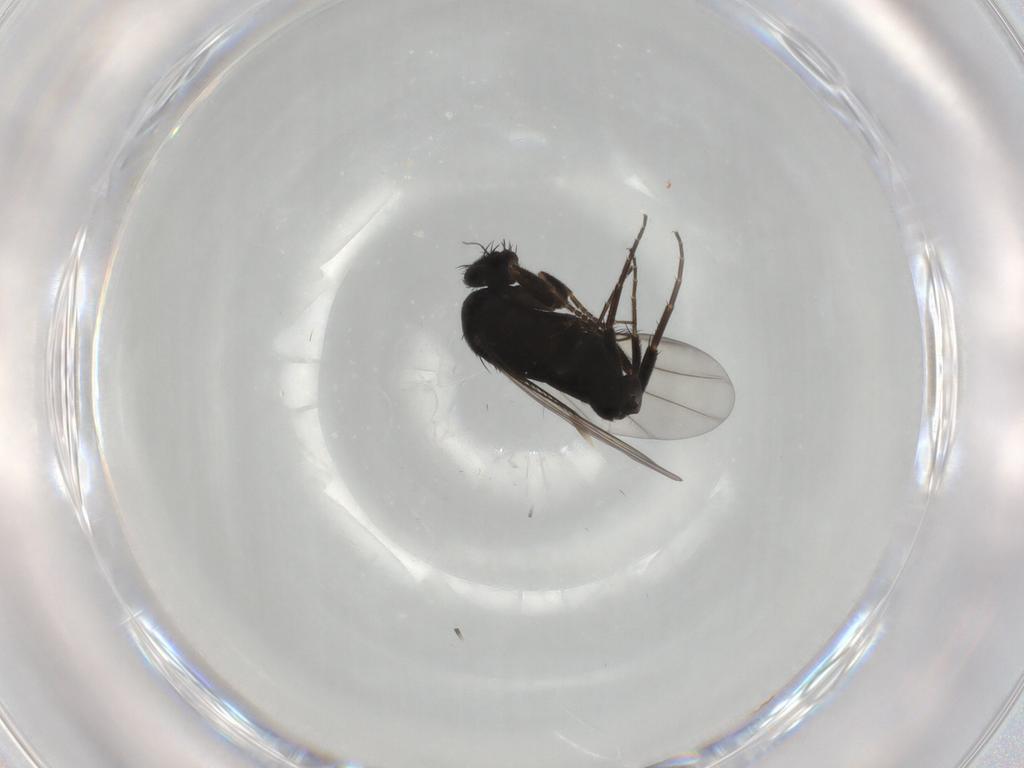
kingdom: Animalia
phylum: Arthropoda
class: Insecta
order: Diptera
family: Phoridae
